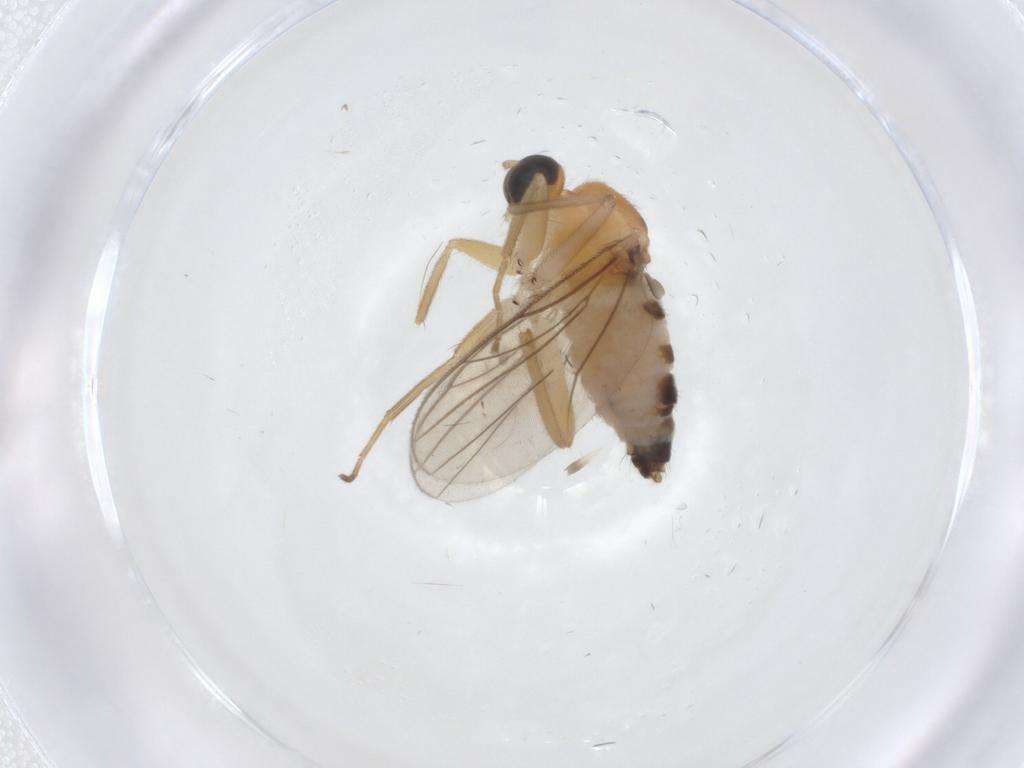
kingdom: Animalia
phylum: Arthropoda
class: Insecta
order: Diptera
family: Hybotidae
